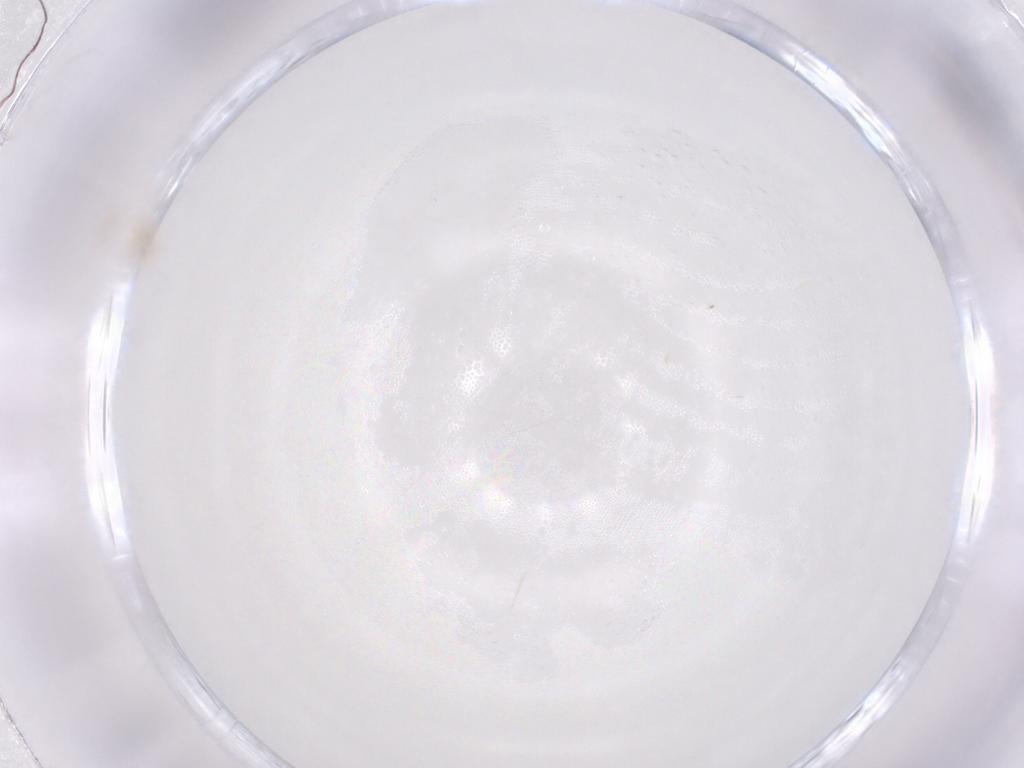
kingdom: Animalia
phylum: Arthropoda
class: Insecta
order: Hymenoptera
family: Mymaridae
